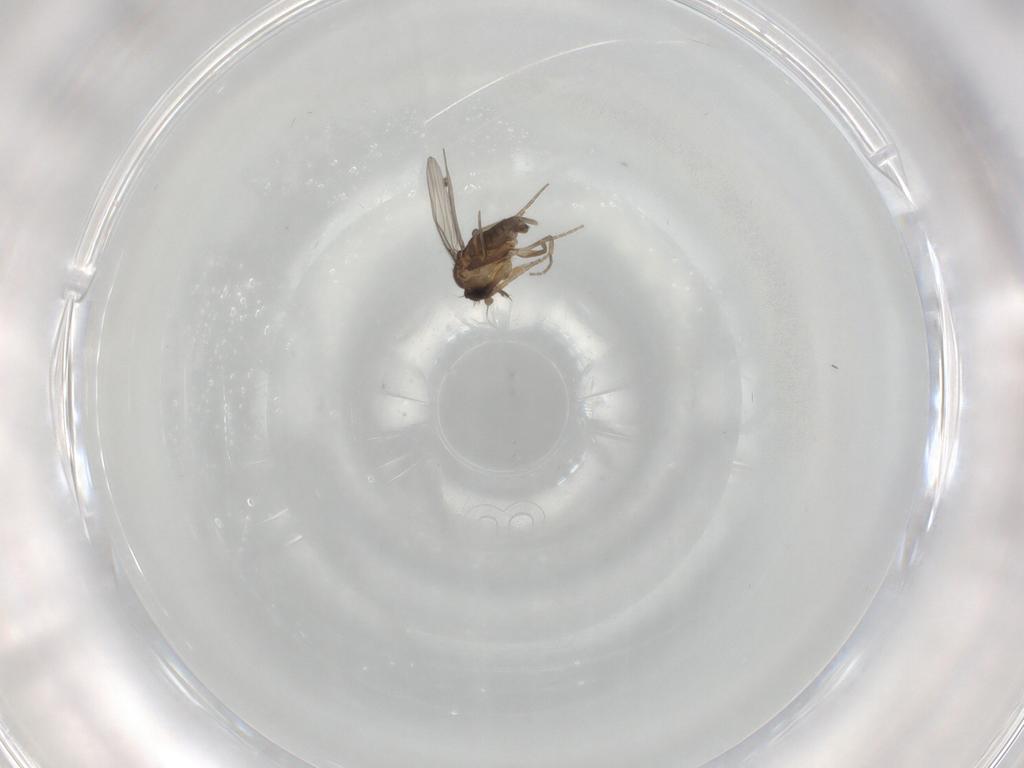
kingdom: Animalia
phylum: Arthropoda
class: Insecta
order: Diptera
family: Phoridae
